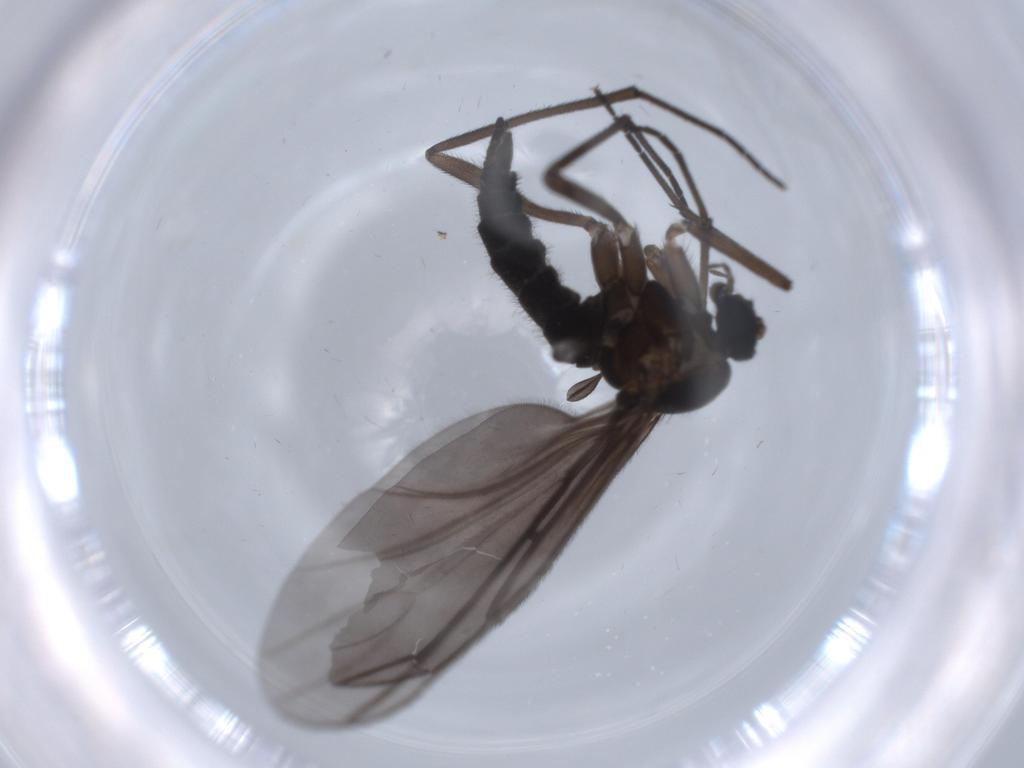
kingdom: Animalia
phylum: Arthropoda
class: Insecta
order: Diptera
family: Sciaridae
